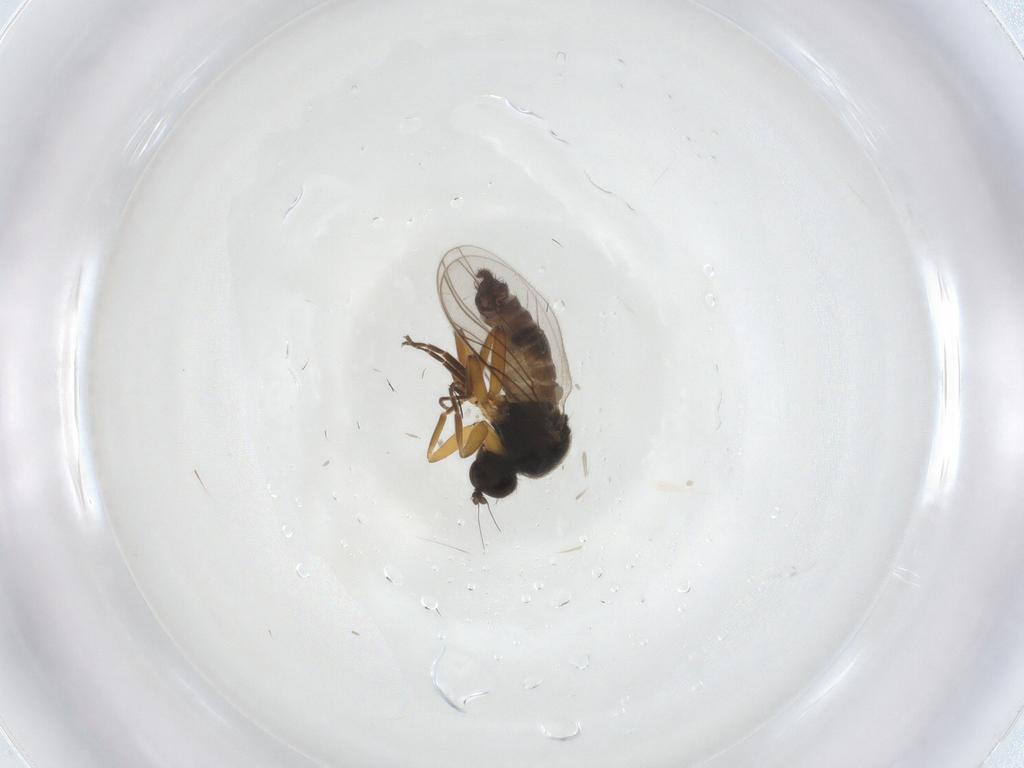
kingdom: Animalia
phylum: Arthropoda
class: Insecta
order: Diptera
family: Hybotidae
